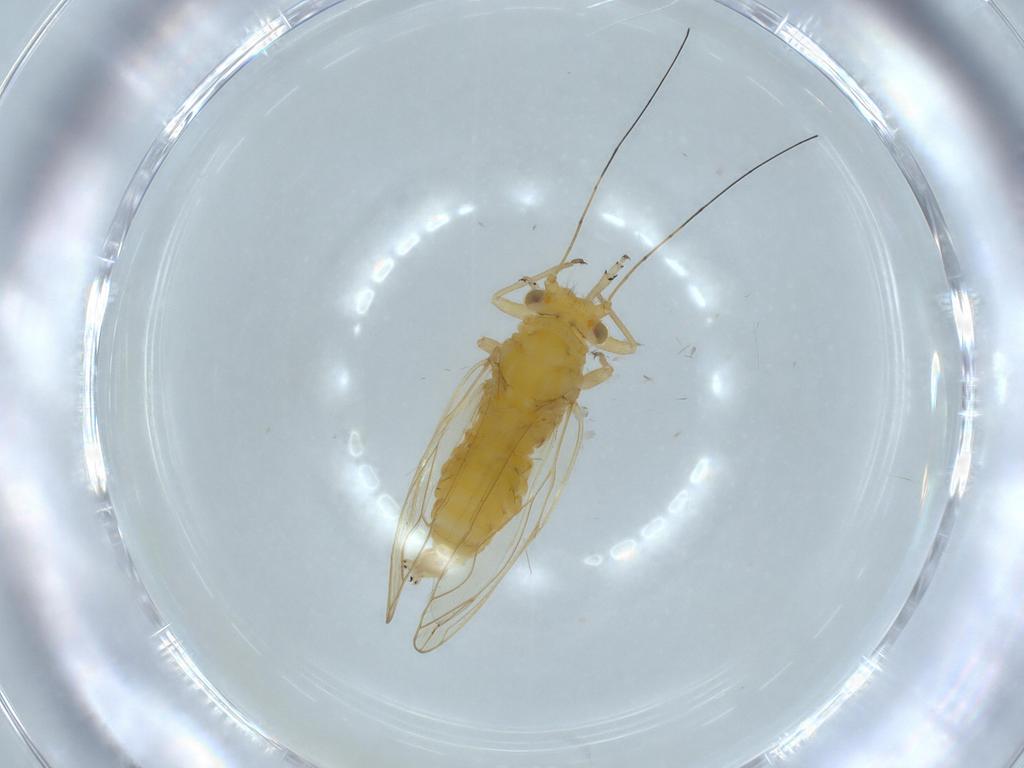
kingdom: Animalia
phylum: Arthropoda
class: Insecta
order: Hemiptera
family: Psyllidae
